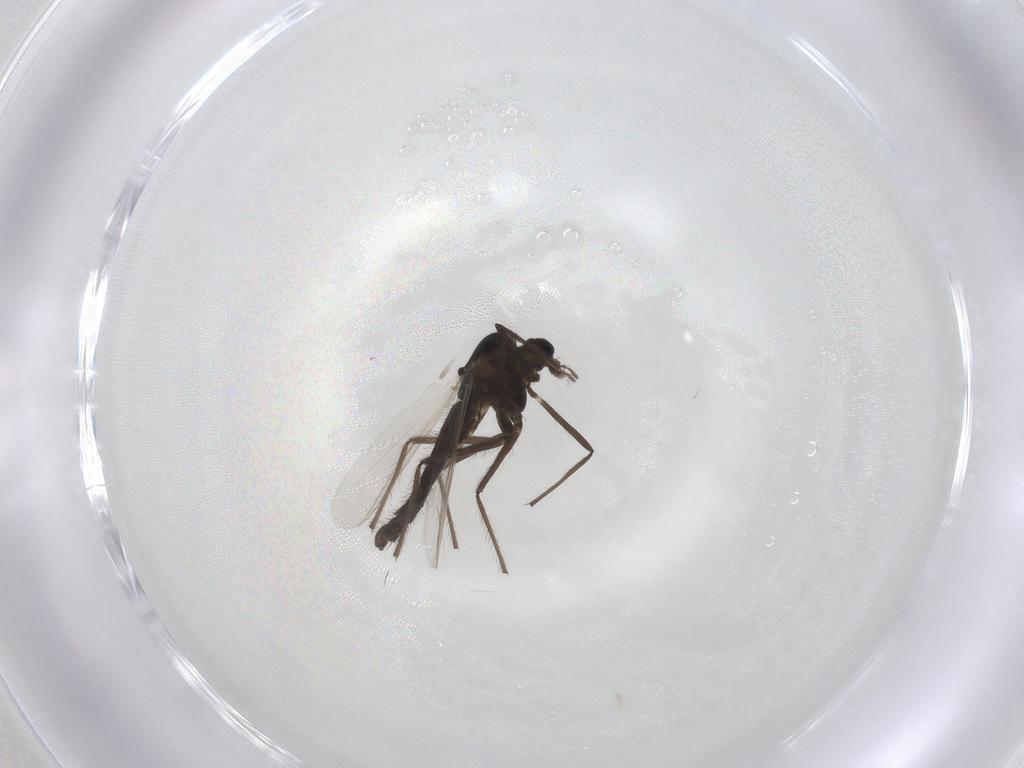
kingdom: Animalia
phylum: Arthropoda
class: Insecta
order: Diptera
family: Chironomidae
